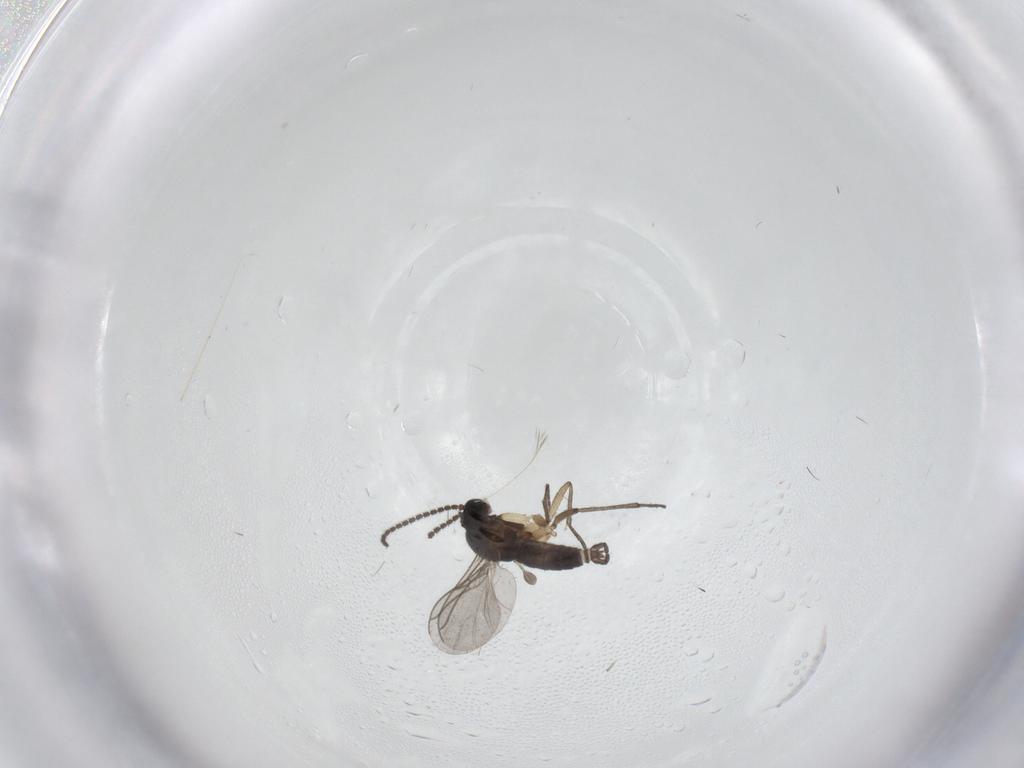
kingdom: Animalia
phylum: Arthropoda
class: Insecta
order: Diptera
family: Sciaridae
